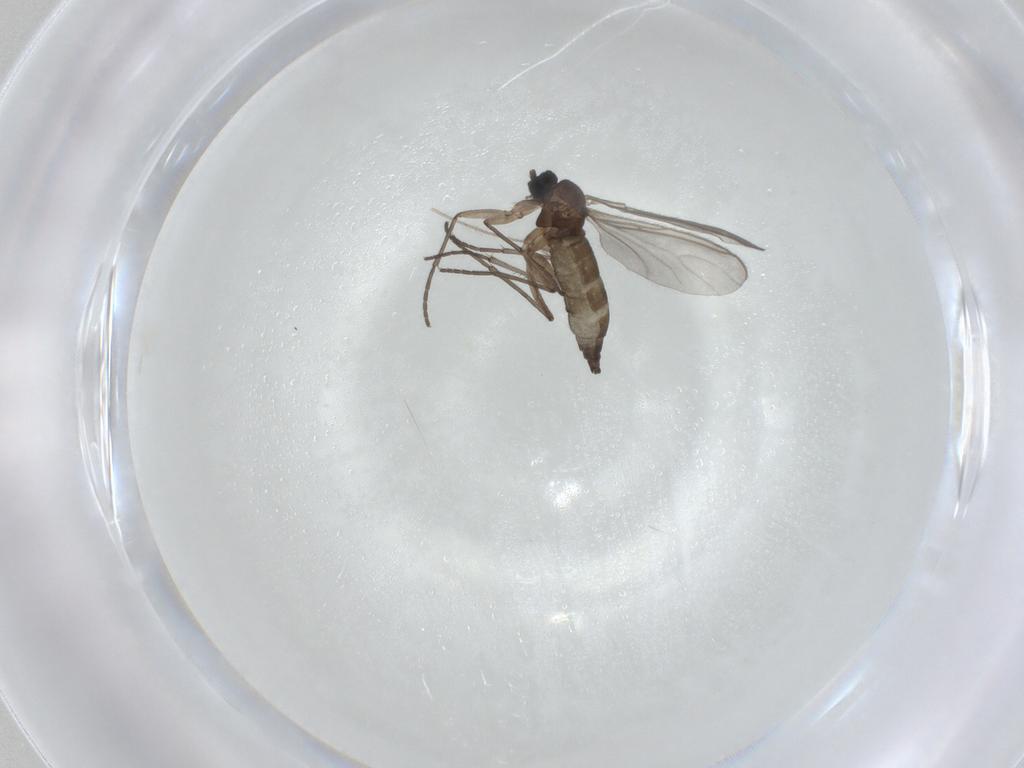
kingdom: Animalia
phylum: Arthropoda
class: Insecta
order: Diptera
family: Sciaridae
